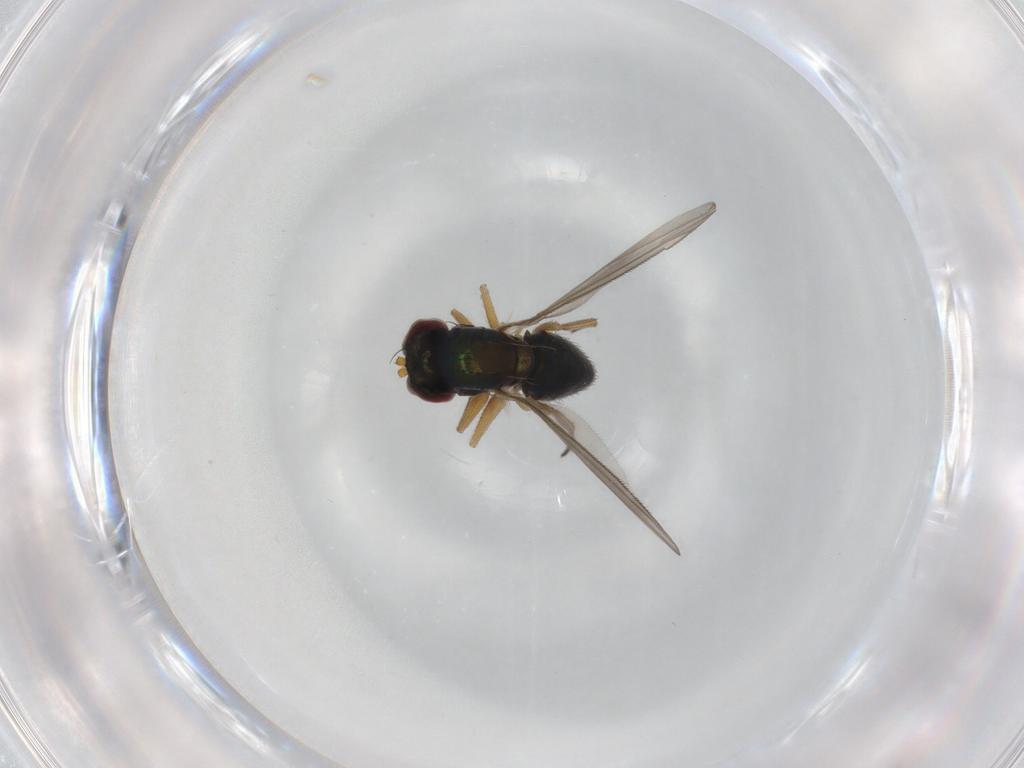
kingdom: Animalia
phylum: Arthropoda
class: Insecta
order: Diptera
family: Dolichopodidae
